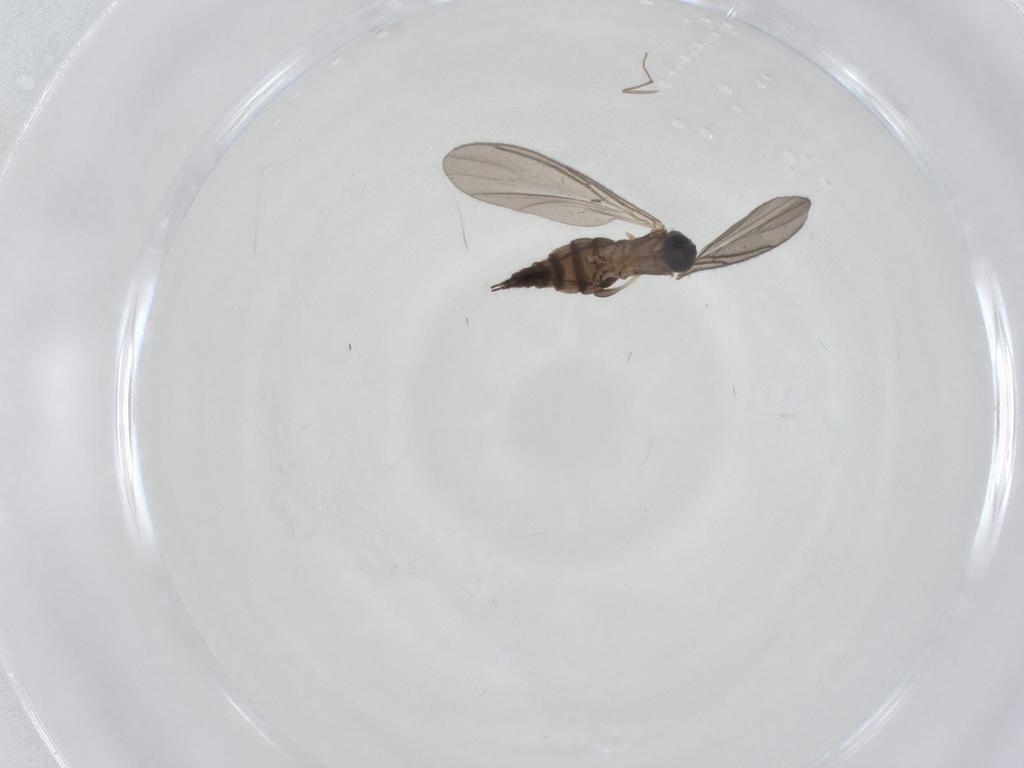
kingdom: Animalia
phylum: Arthropoda
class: Insecta
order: Diptera
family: Sciaridae
